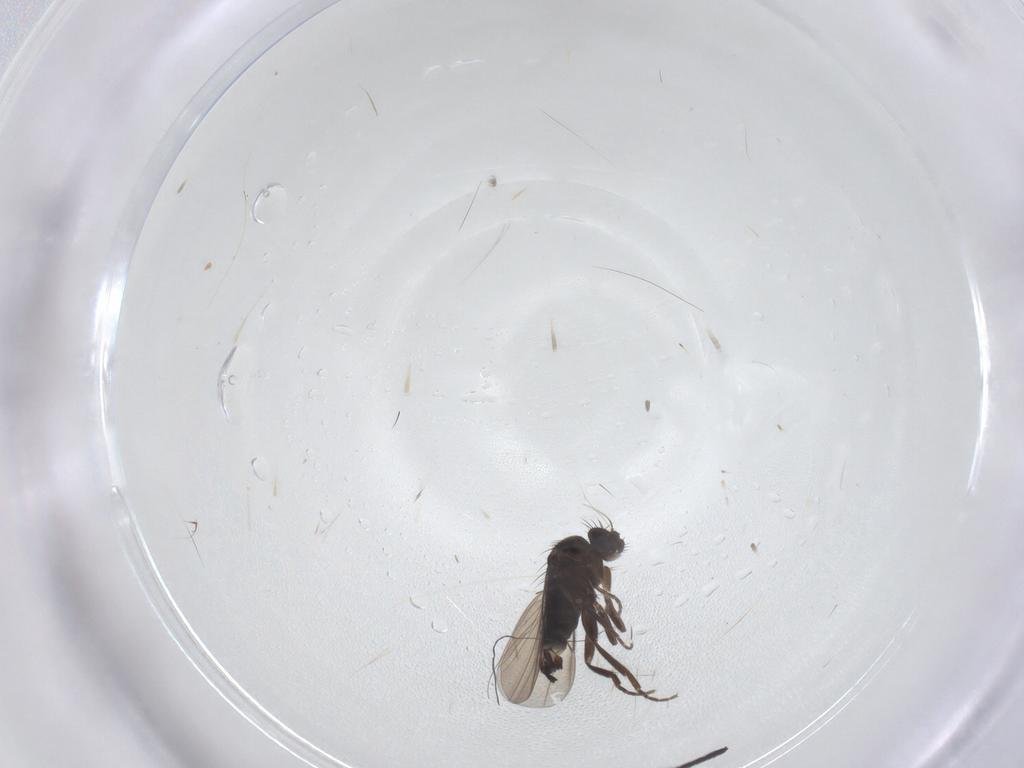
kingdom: Animalia
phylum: Arthropoda
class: Insecta
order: Diptera
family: Muscidae
